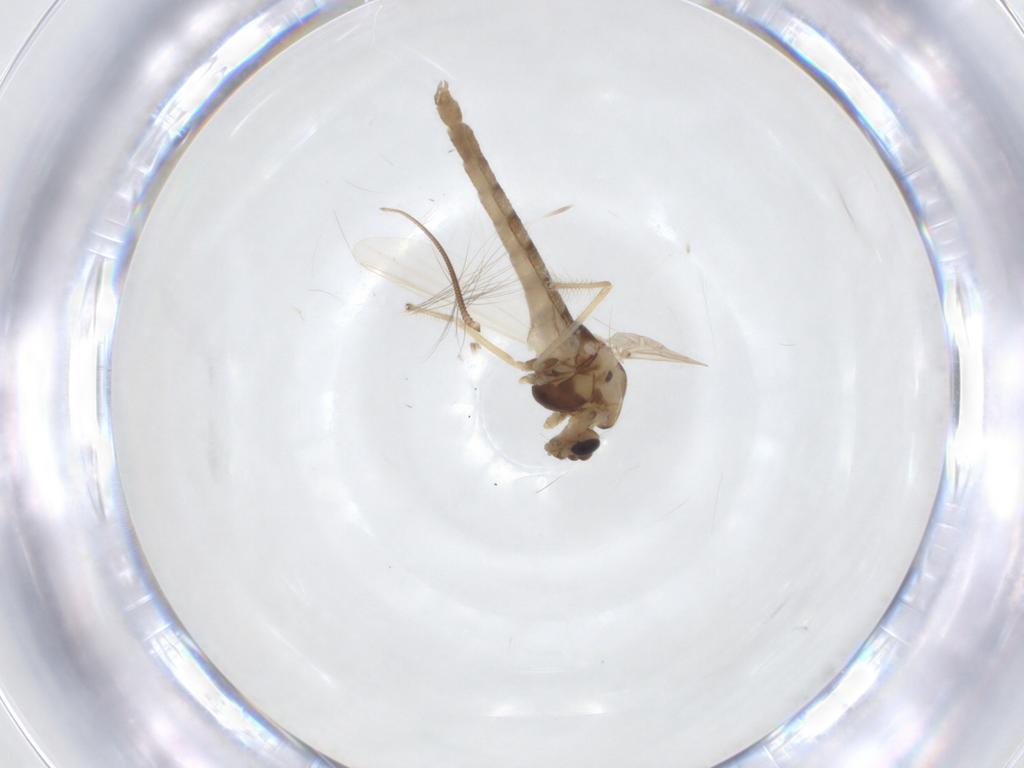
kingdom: Animalia
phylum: Arthropoda
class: Insecta
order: Diptera
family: Chironomidae
